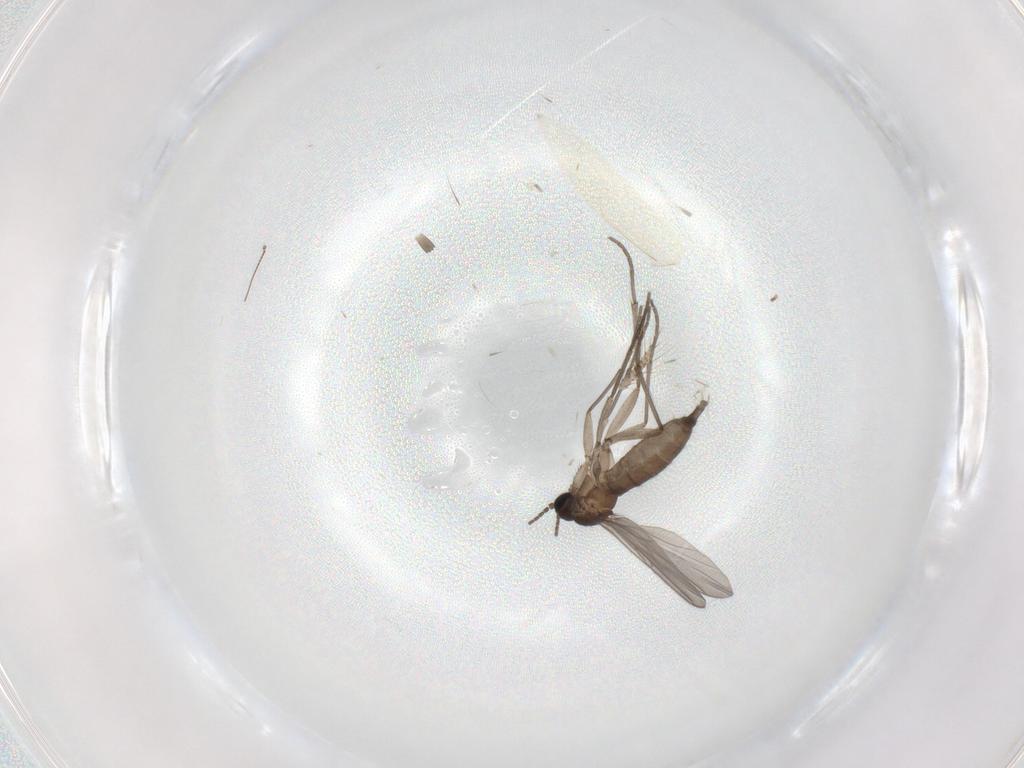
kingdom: Animalia
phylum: Arthropoda
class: Insecta
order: Diptera
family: Sciaridae
